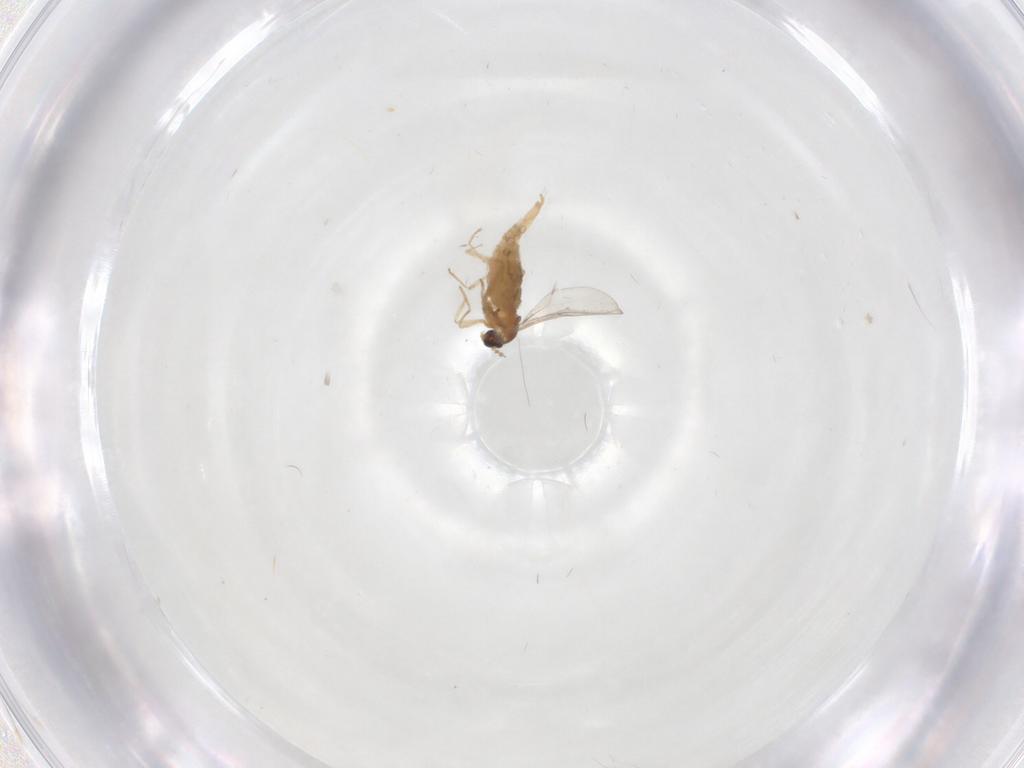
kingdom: Animalia
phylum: Arthropoda
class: Insecta
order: Diptera
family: Cecidomyiidae
